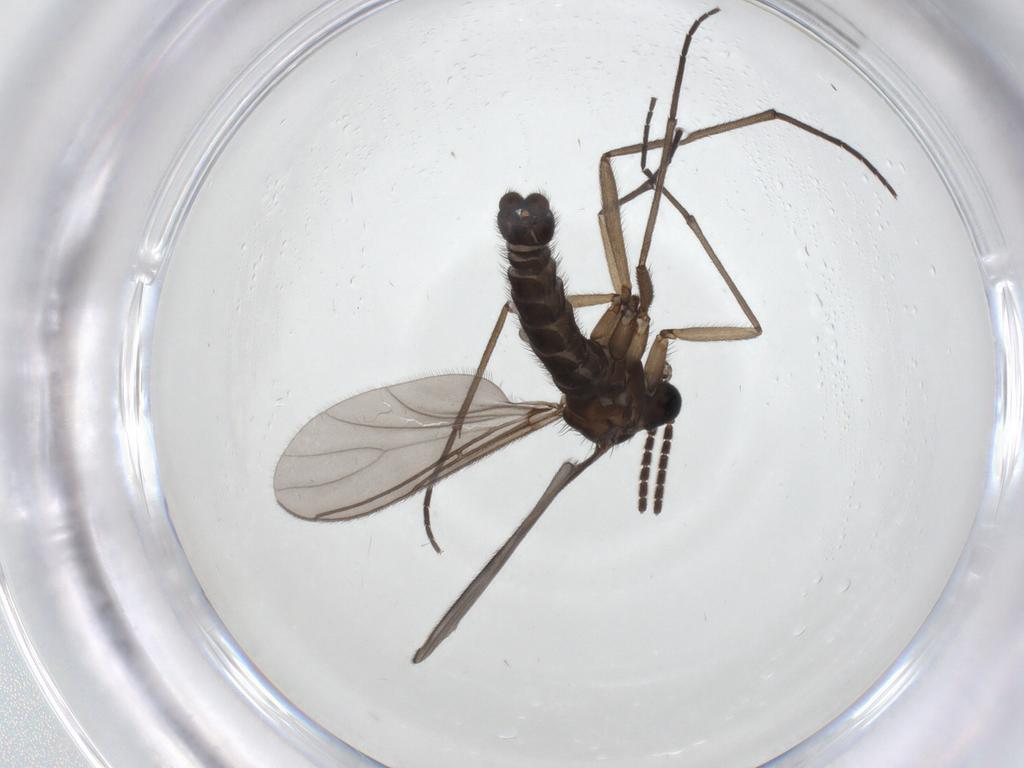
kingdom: Animalia
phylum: Arthropoda
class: Insecta
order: Diptera
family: Sciaridae
